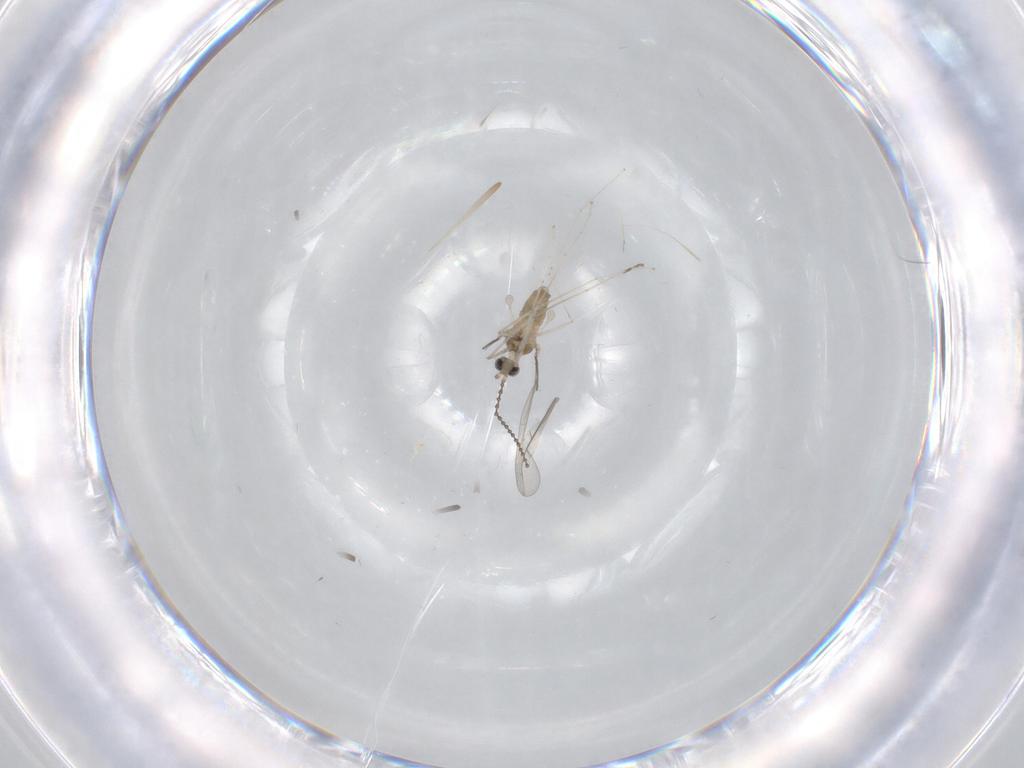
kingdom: Animalia
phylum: Arthropoda
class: Insecta
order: Diptera
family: Cecidomyiidae
